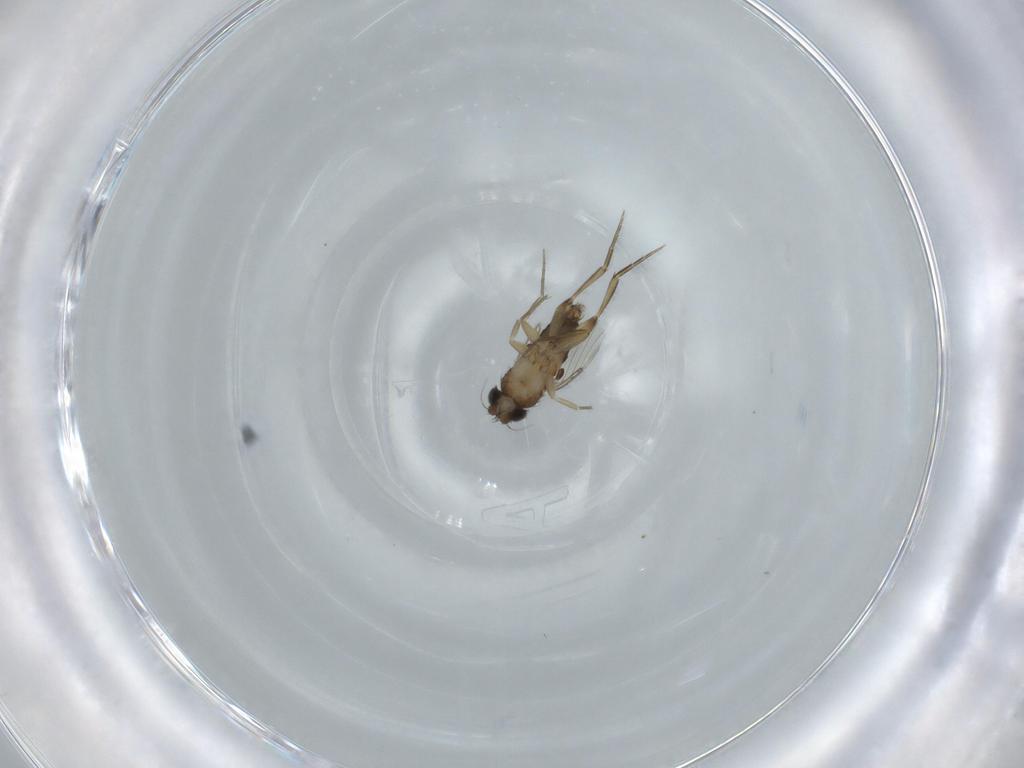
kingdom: Animalia
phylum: Arthropoda
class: Insecta
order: Diptera
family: Phoridae
